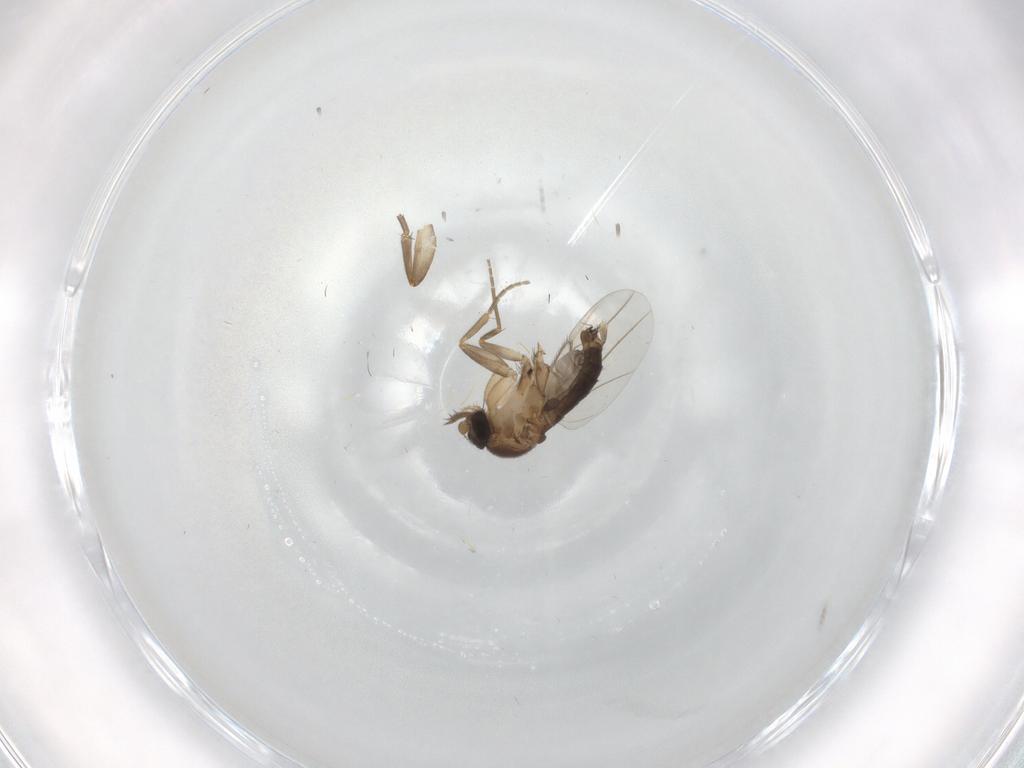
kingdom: Animalia
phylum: Arthropoda
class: Insecta
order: Diptera
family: Phoridae
